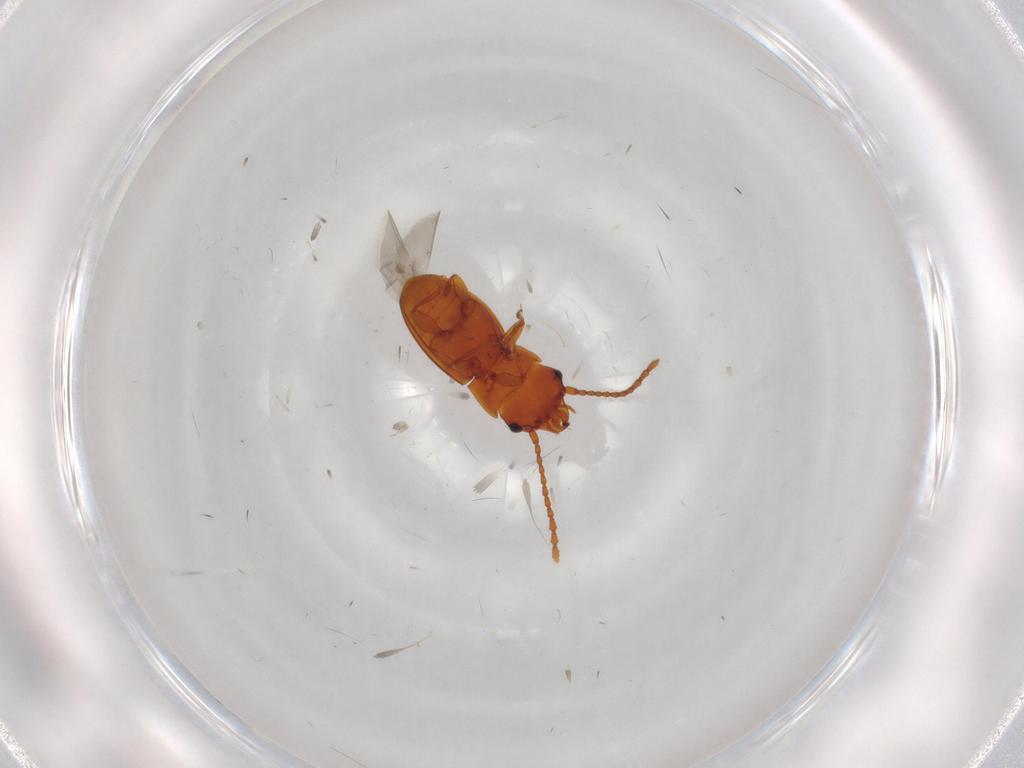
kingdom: Animalia
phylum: Arthropoda
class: Insecta
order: Coleoptera
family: Laemophloeidae
